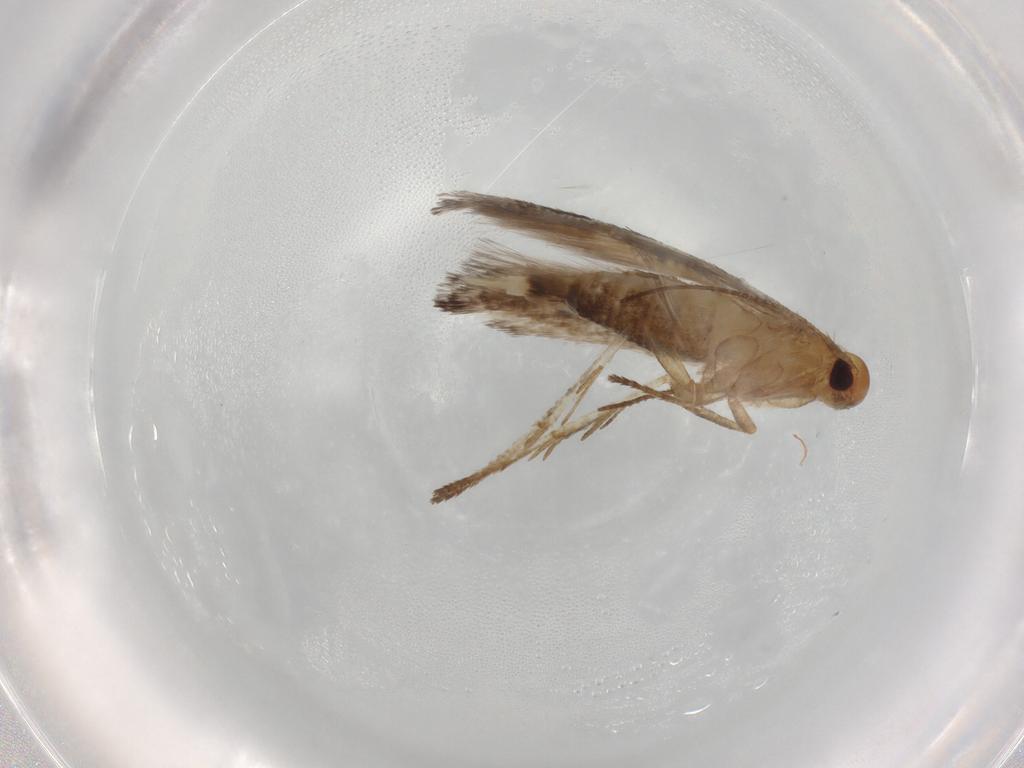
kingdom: Animalia
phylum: Arthropoda
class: Insecta
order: Lepidoptera
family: Cosmopterigidae
